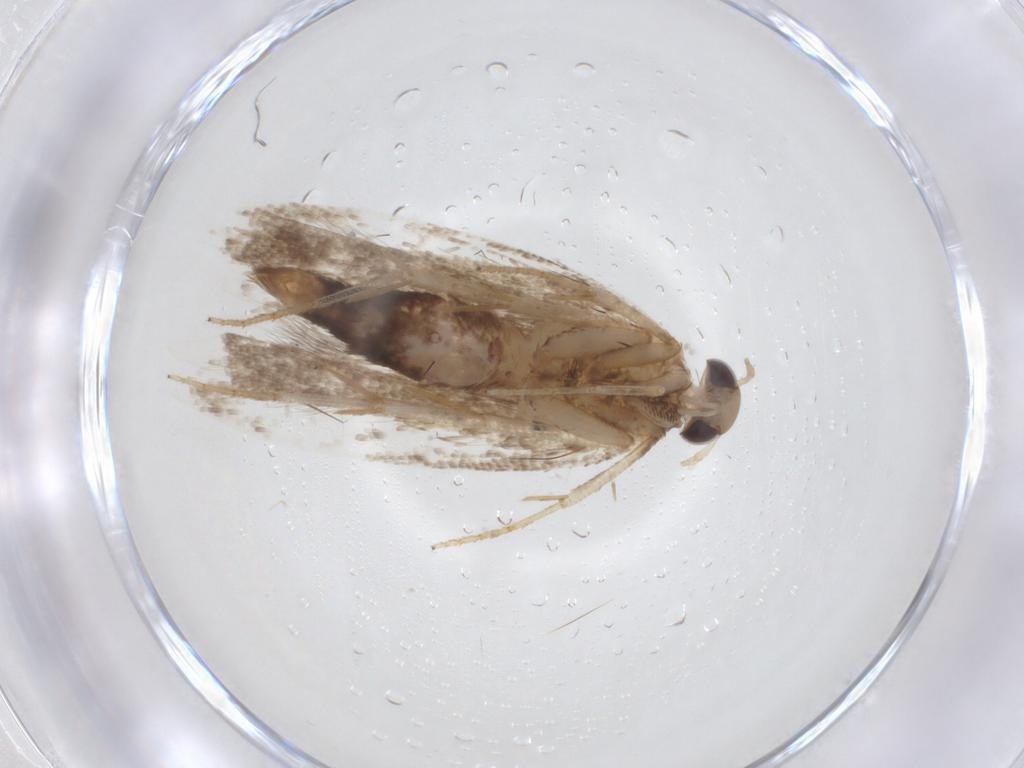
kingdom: Animalia
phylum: Arthropoda
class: Insecta
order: Lepidoptera
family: Gelechiidae
